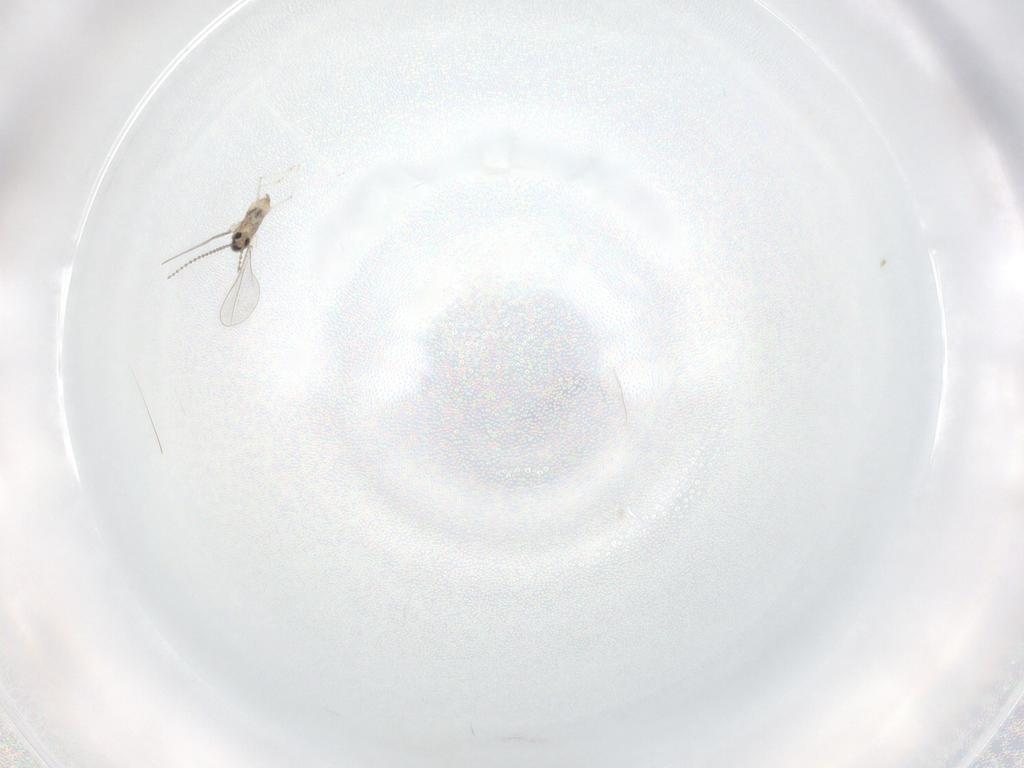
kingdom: Animalia
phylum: Arthropoda
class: Insecta
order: Diptera
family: Cecidomyiidae
